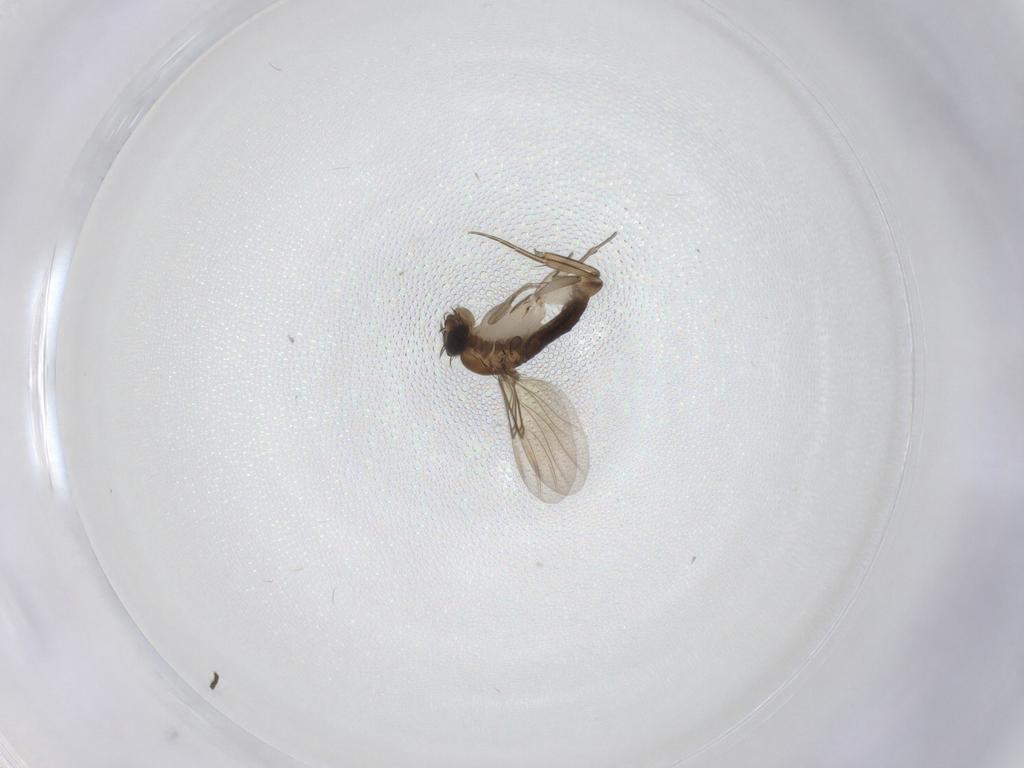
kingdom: Animalia
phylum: Arthropoda
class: Insecta
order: Diptera
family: Phoridae
